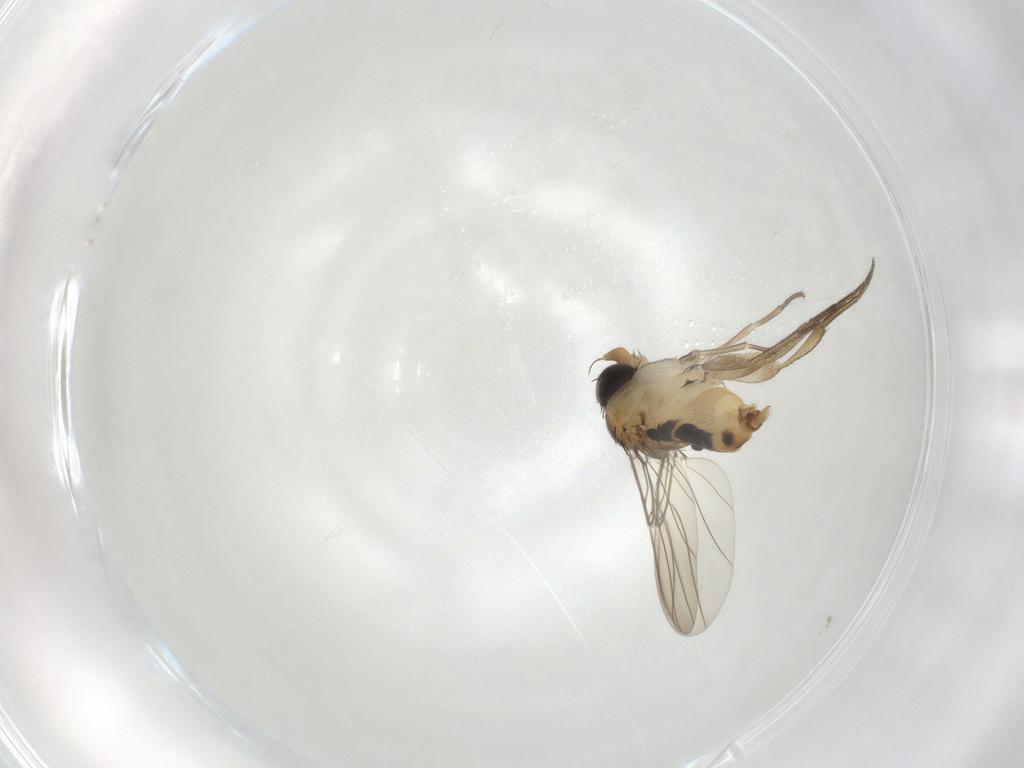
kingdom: Animalia
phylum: Arthropoda
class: Insecta
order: Diptera
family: Phoridae
